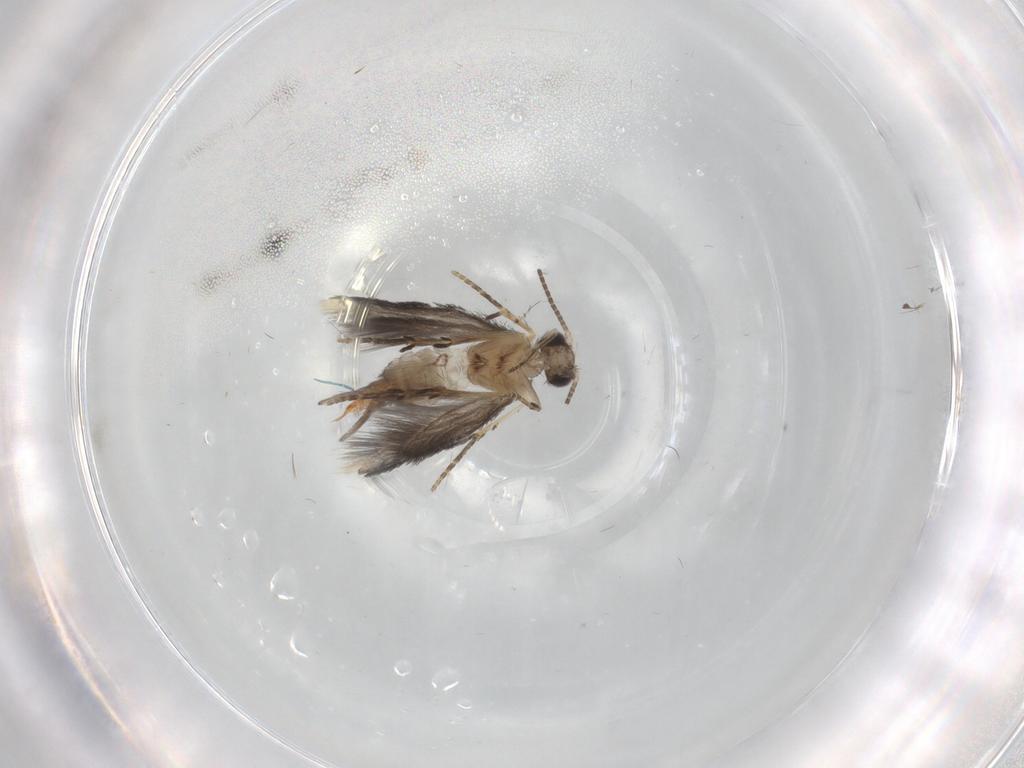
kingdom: Animalia
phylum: Arthropoda
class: Insecta
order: Trichoptera
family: Hydroptilidae
